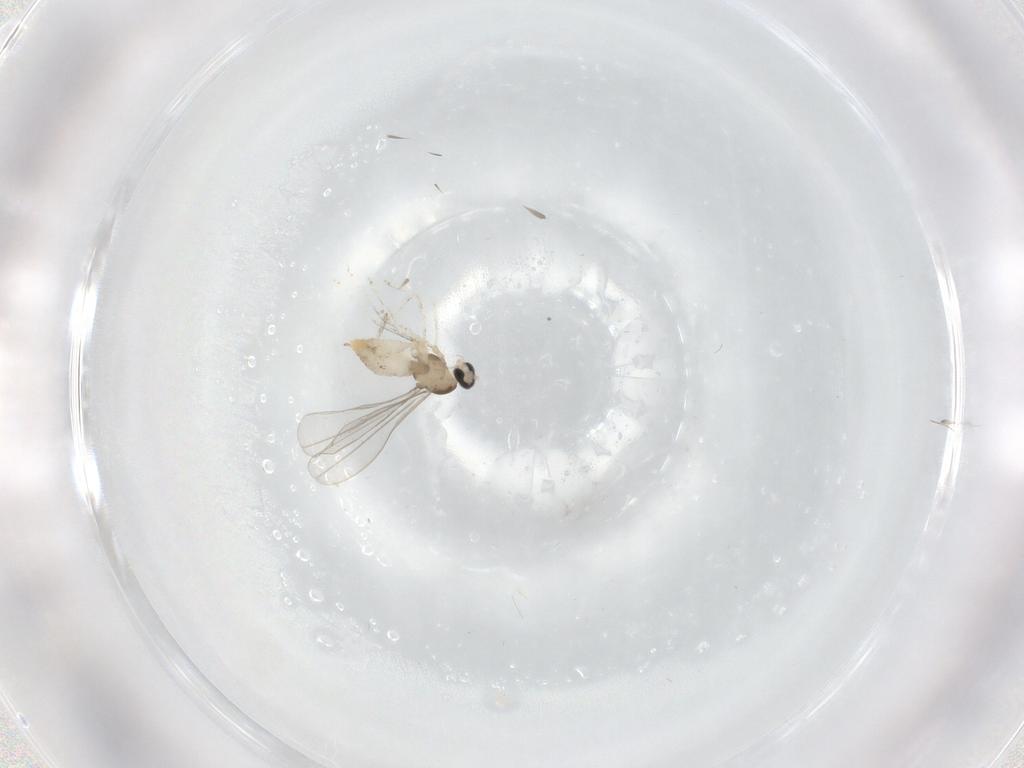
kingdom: Animalia
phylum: Arthropoda
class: Insecta
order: Diptera
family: Cecidomyiidae
